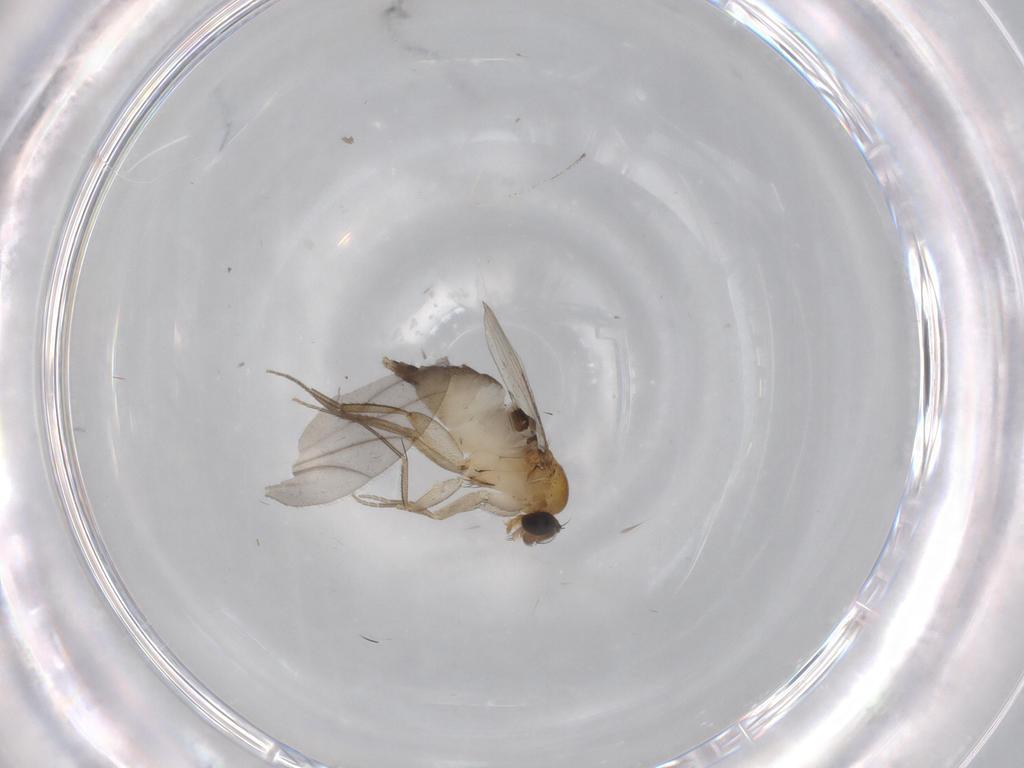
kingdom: Animalia
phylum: Arthropoda
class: Insecta
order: Diptera
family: Phoridae
